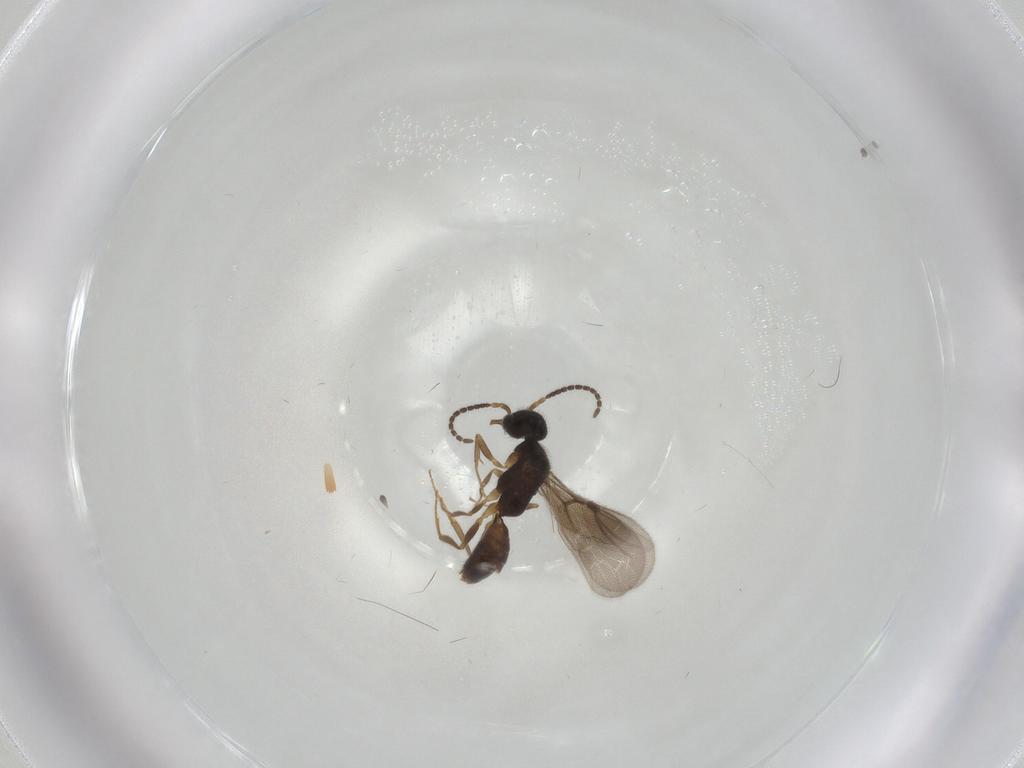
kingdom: Animalia
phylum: Arthropoda
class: Insecta
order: Hymenoptera
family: Bethylidae
